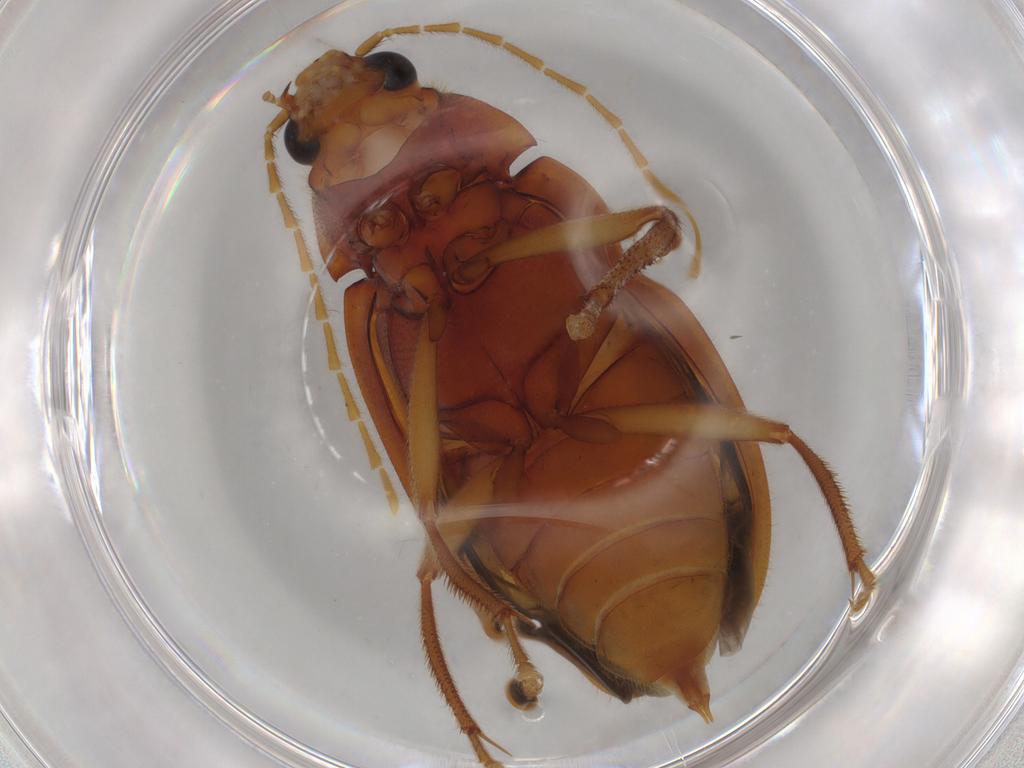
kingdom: Animalia
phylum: Arthropoda
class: Insecta
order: Coleoptera
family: Ptilodactylidae
